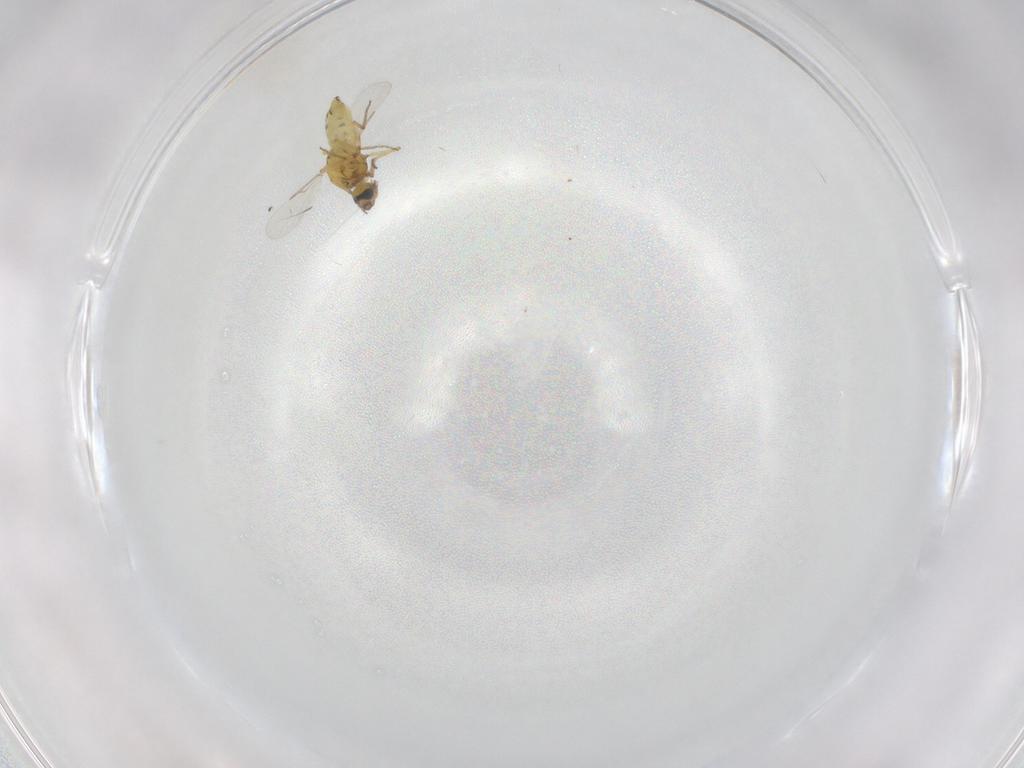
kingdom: Animalia
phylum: Arthropoda
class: Insecta
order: Diptera
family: Ceratopogonidae
